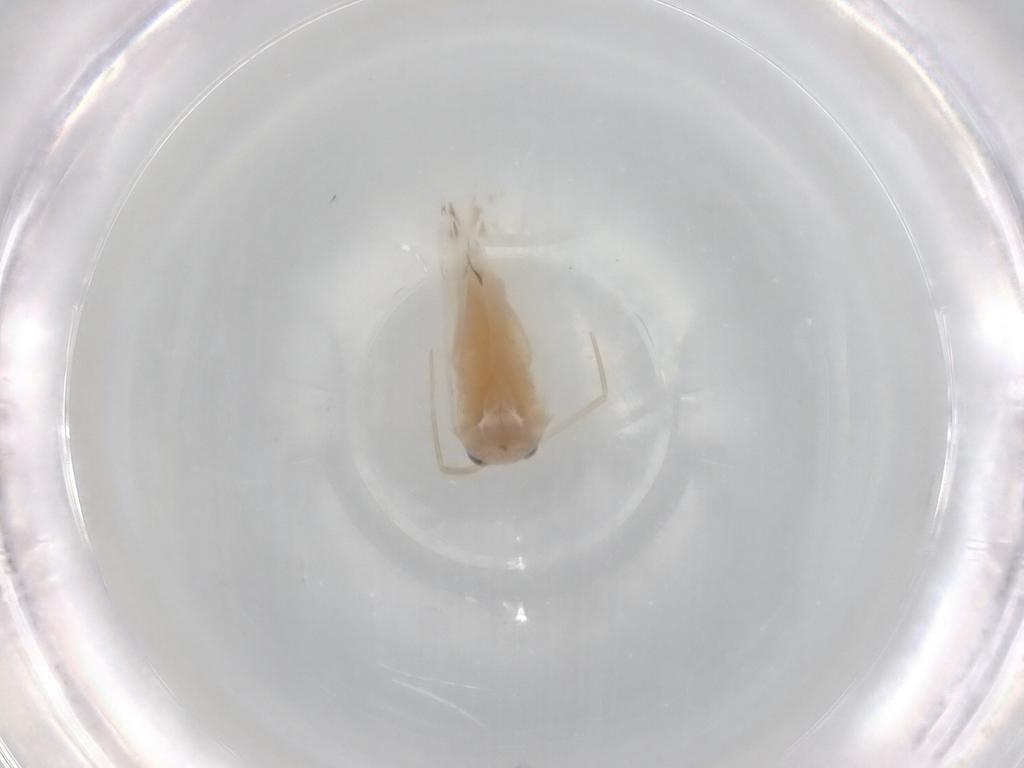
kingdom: Animalia
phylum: Arthropoda
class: Insecta
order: Hemiptera
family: Miridae
